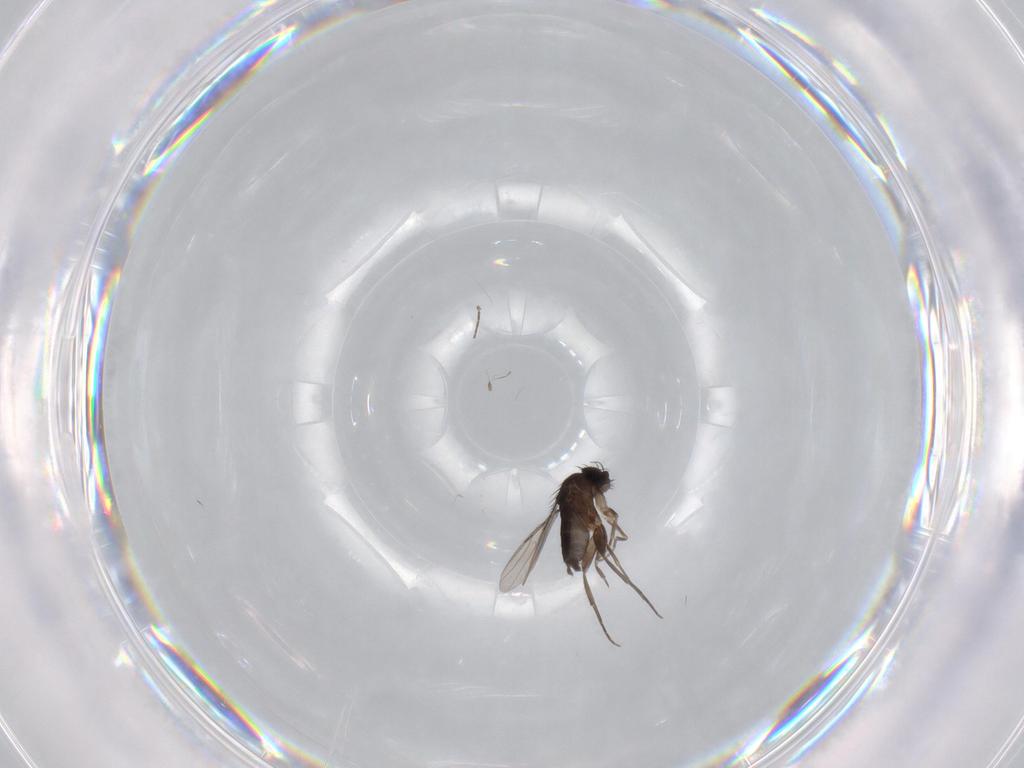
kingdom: Animalia
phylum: Arthropoda
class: Insecta
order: Diptera
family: Phoridae
